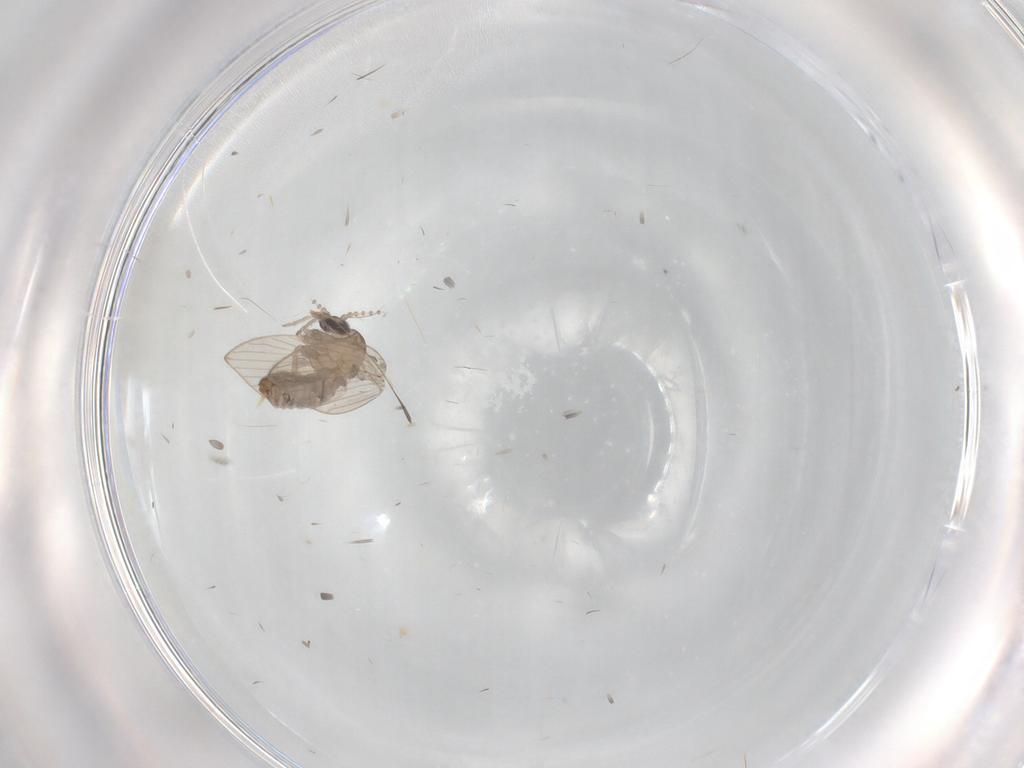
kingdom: Animalia
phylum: Arthropoda
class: Insecta
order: Diptera
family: Psychodidae
